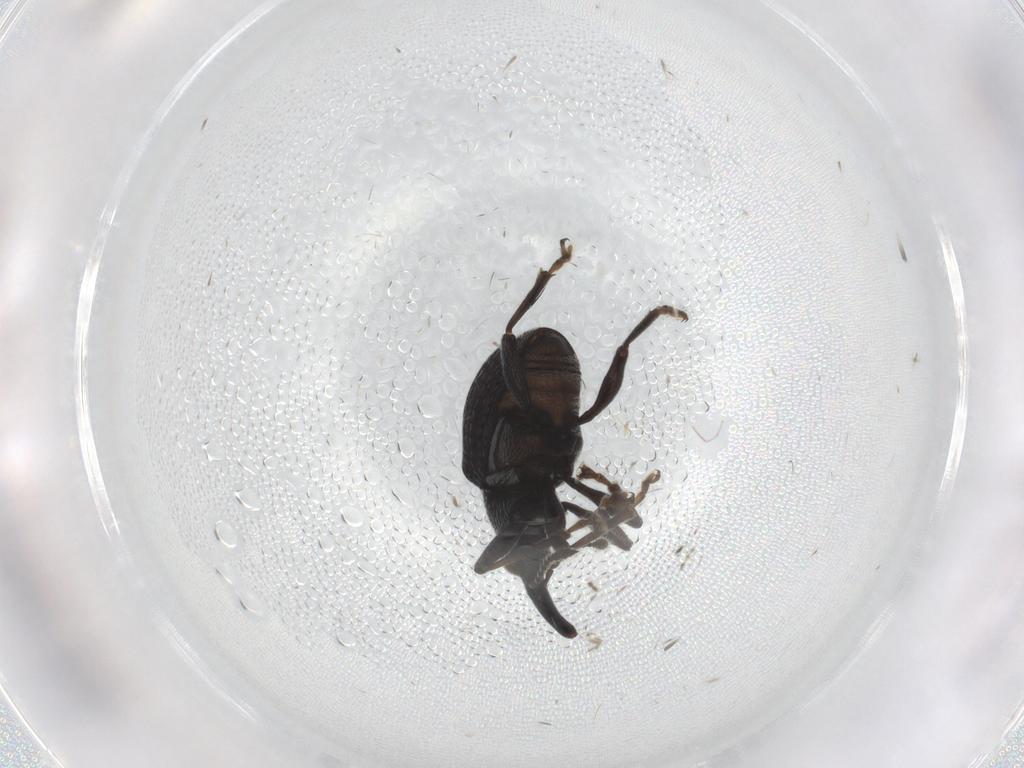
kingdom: Animalia
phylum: Arthropoda
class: Insecta
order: Coleoptera
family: Brentidae
